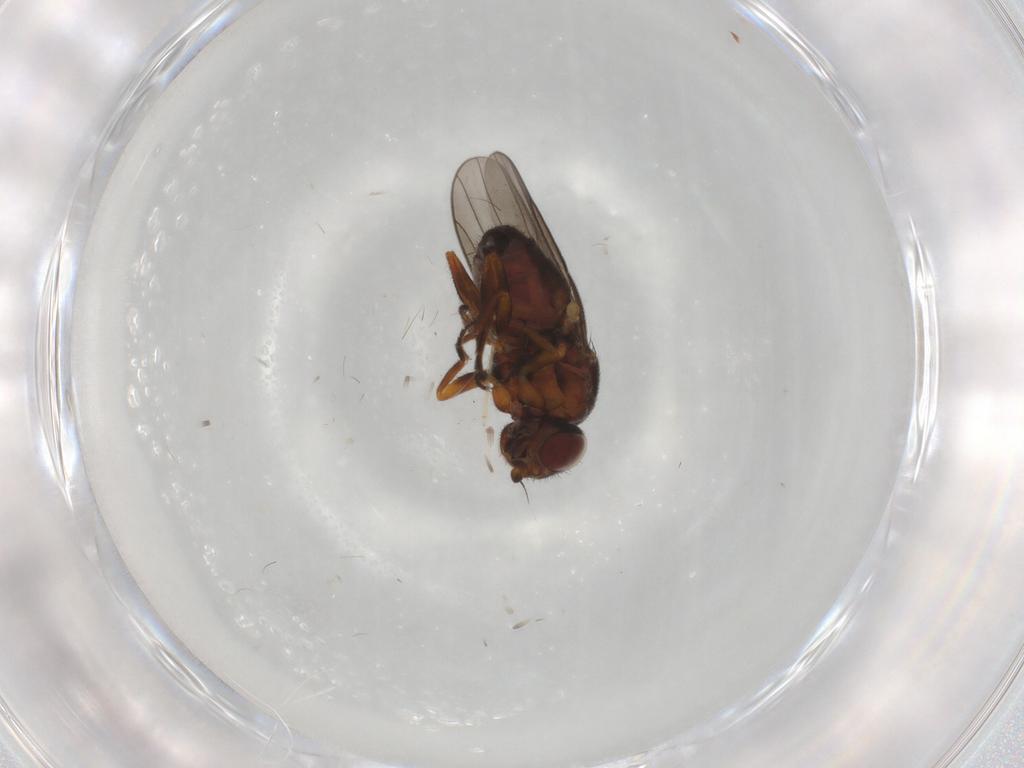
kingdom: Animalia
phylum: Arthropoda
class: Insecta
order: Diptera
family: Chloropidae
